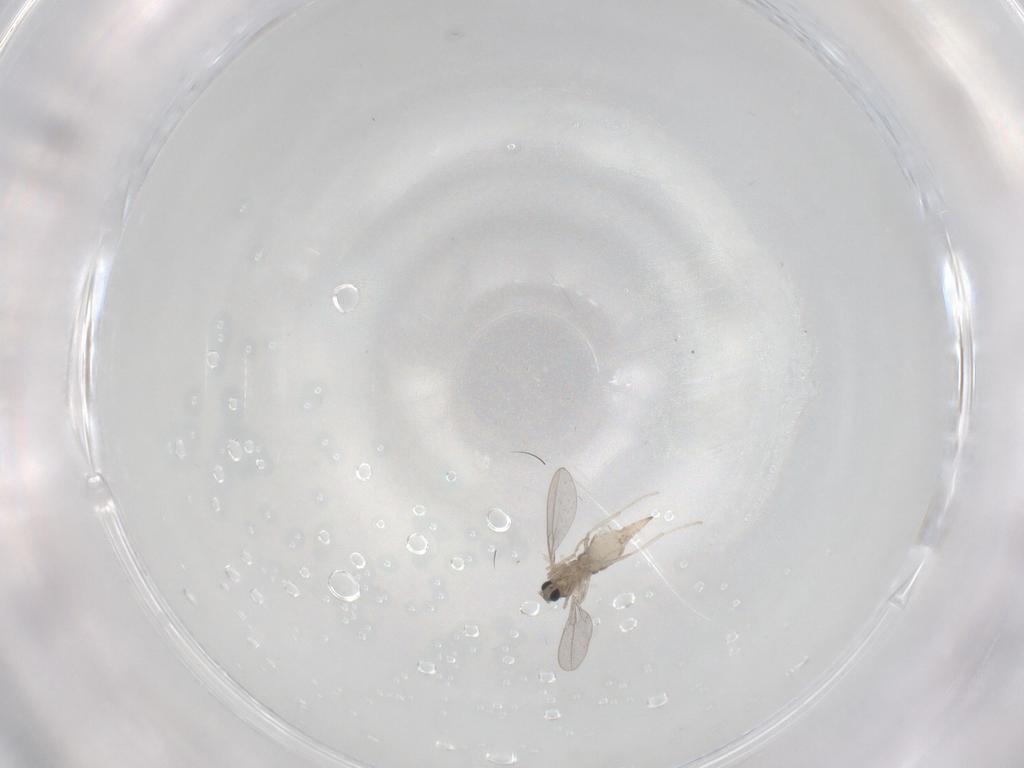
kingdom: Animalia
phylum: Arthropoda
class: Insecta
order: Diptera
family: Cecidomyiidae
